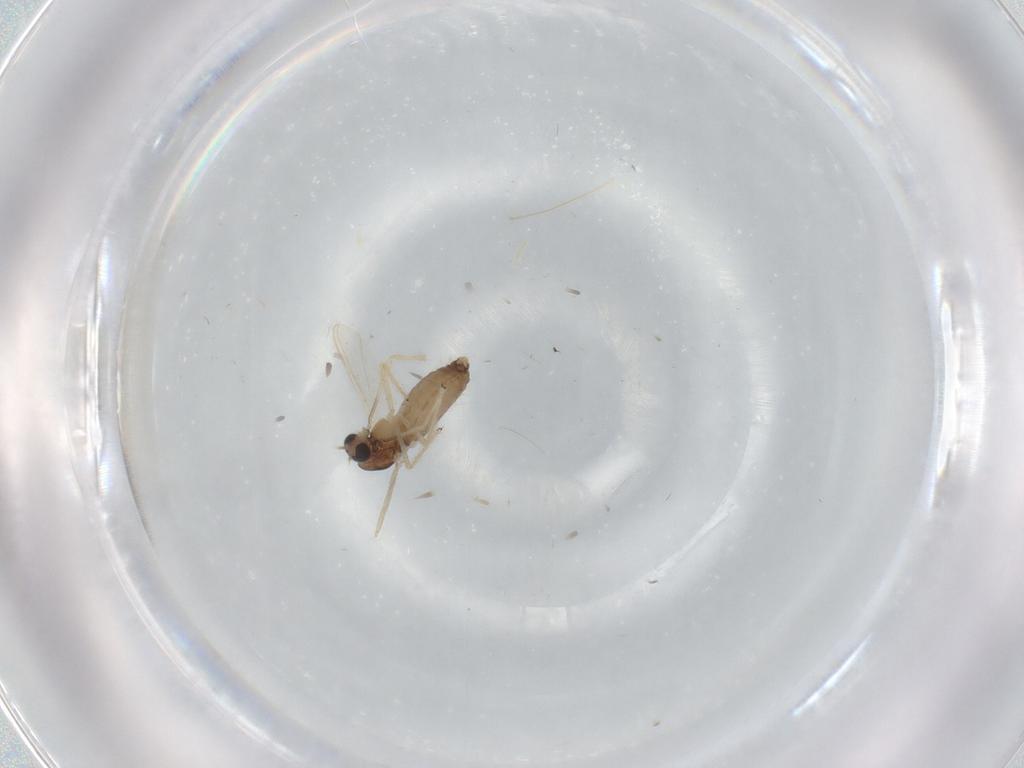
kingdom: Animalia
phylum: Arthropoda
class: Insecta
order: Diptera
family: Chironomidae
